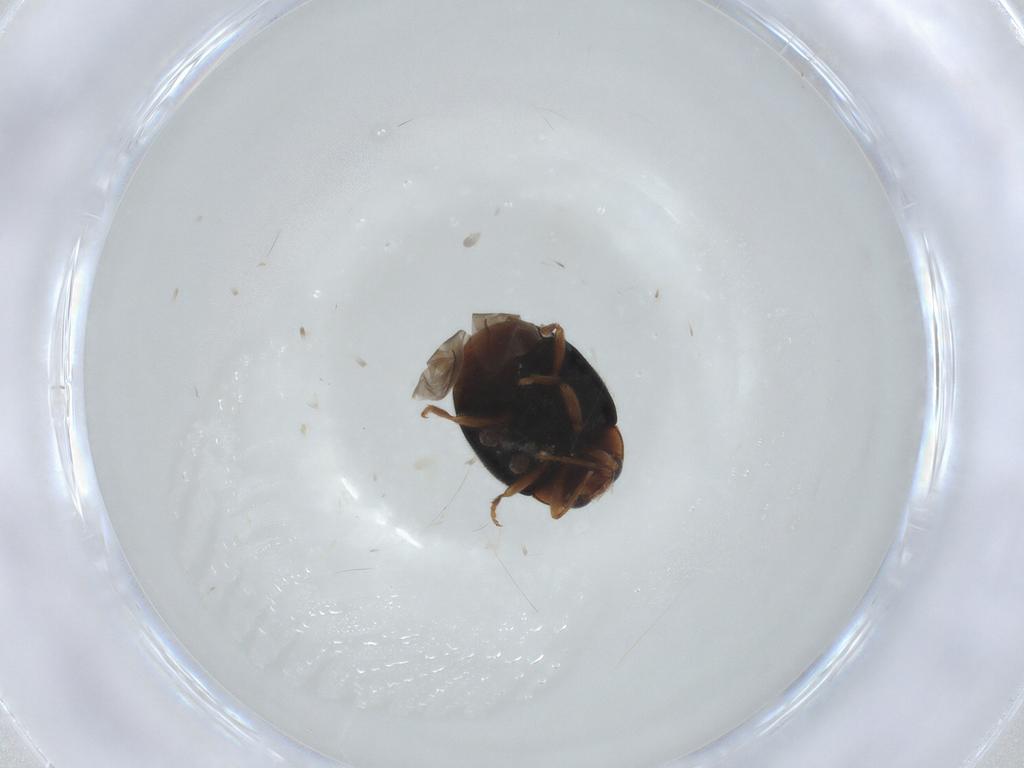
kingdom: Animalia
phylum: Arthropoda
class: Insecta
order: Coleoptera
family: Coccinellidae
